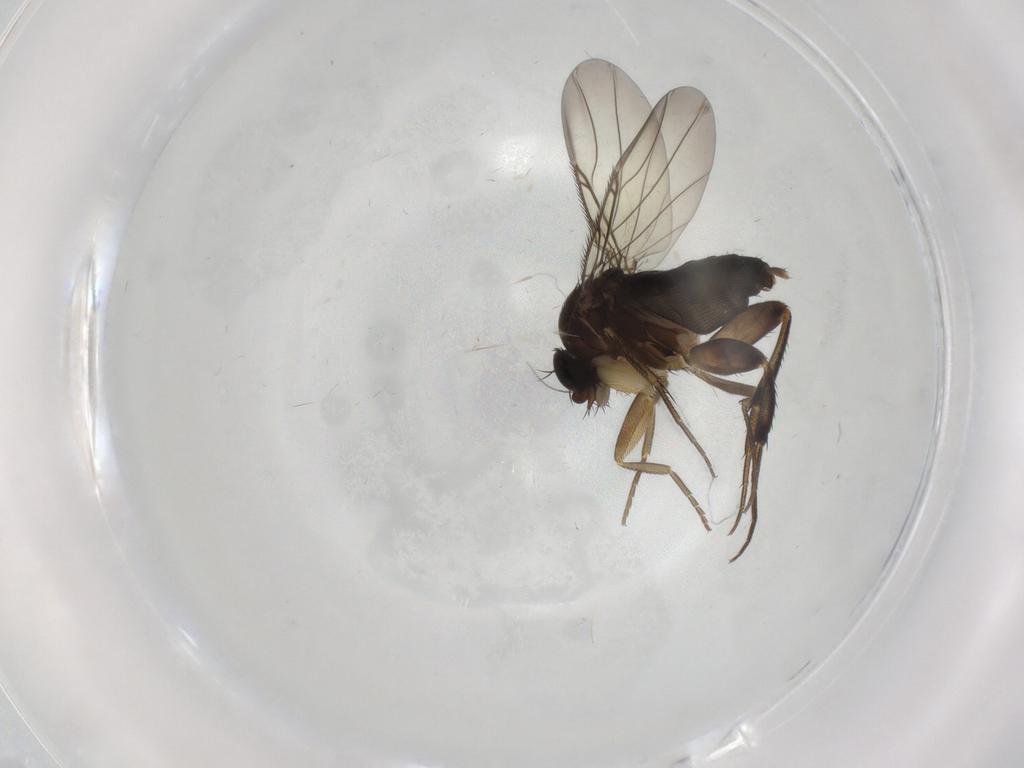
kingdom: Animalia
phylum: Arthropoda
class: Insecta
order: Diptera
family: Phoridae
